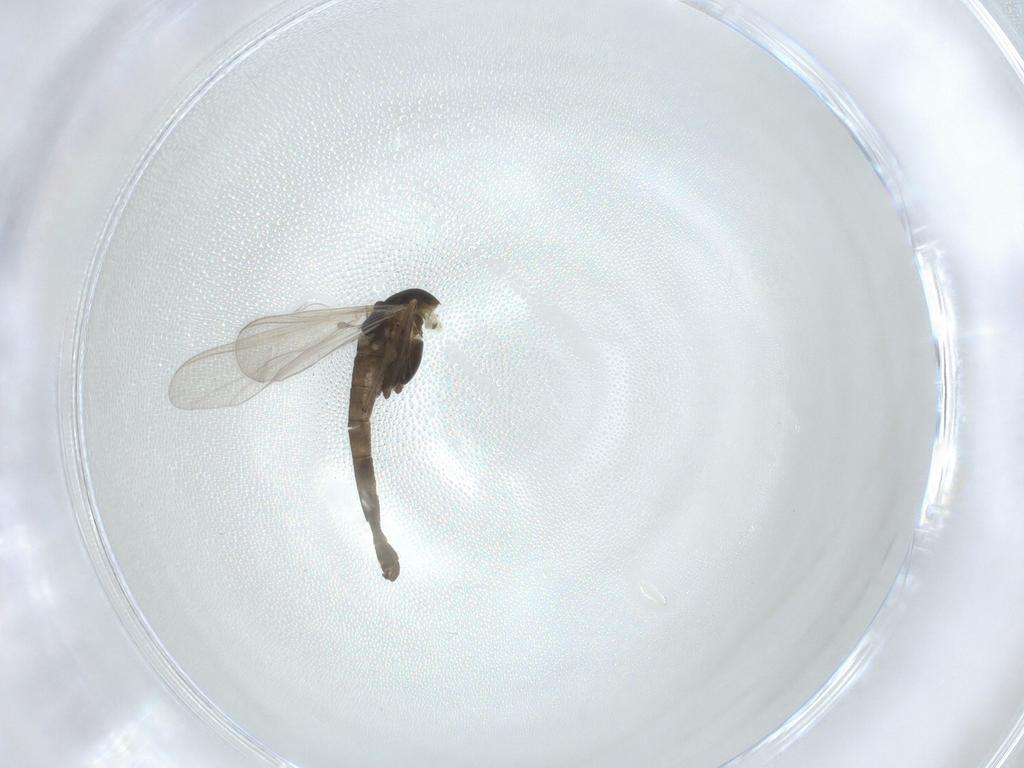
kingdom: Animalia
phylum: Arthropoda
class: Insecta
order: Diptera
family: Chironomidae
